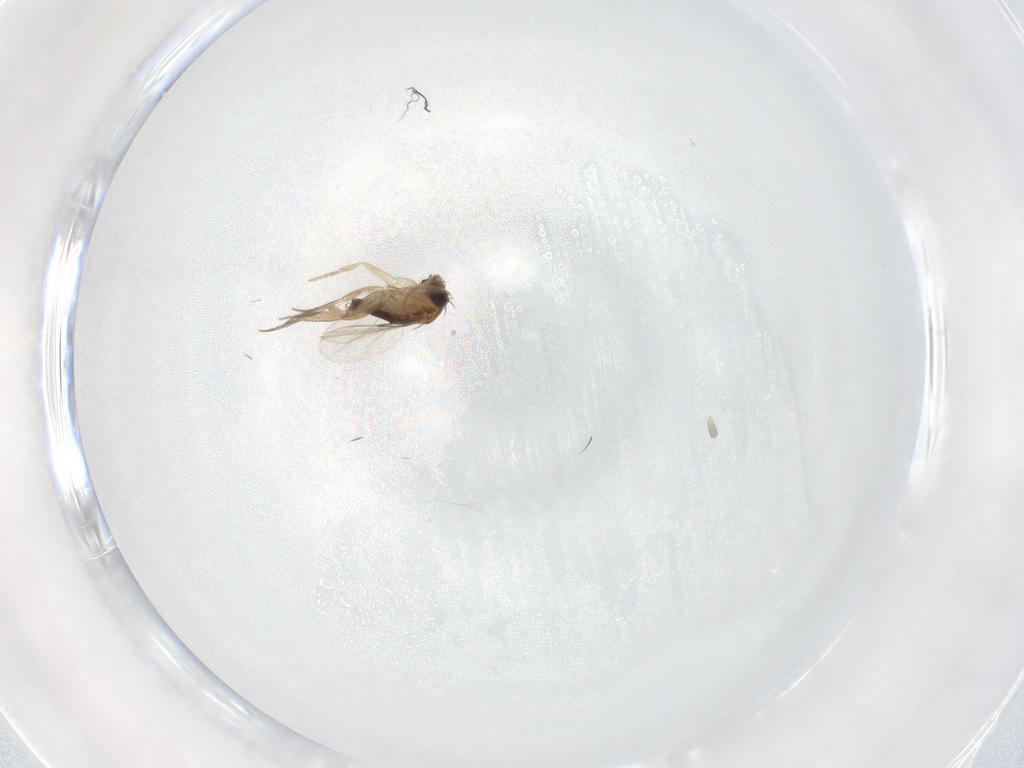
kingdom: Animalia
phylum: Arthropoda
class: Insecta
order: Diptera
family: Phoridae
